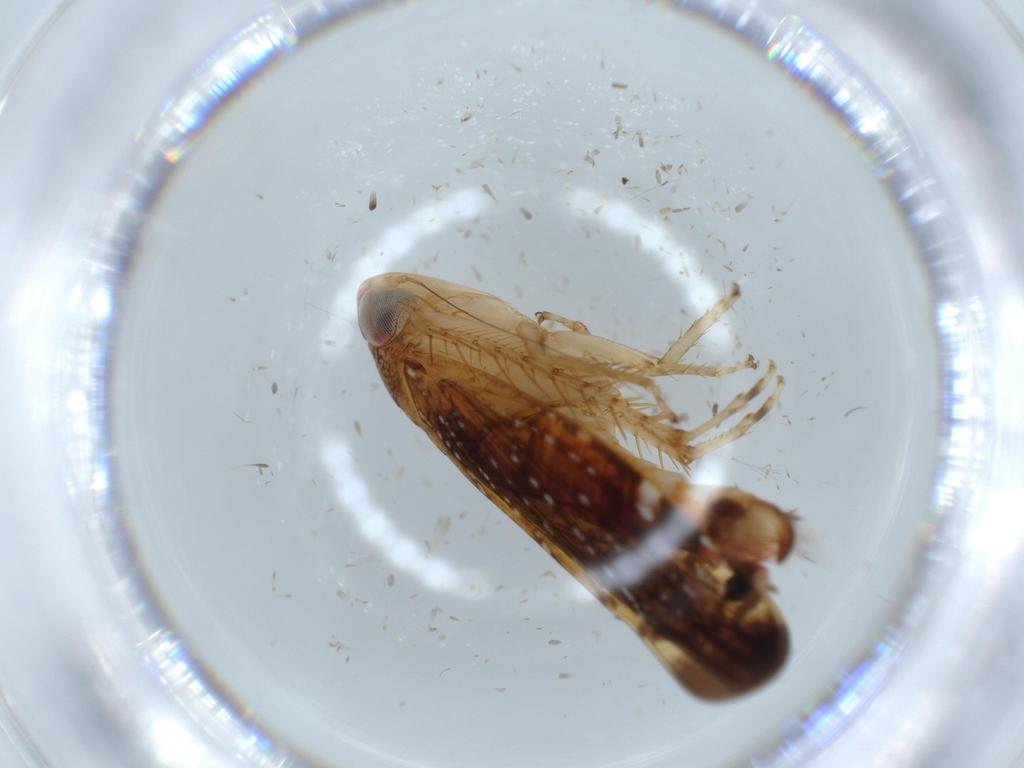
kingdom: Animalia
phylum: Arthropoda
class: Insecta
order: Hemiptera
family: Cicadellidae
